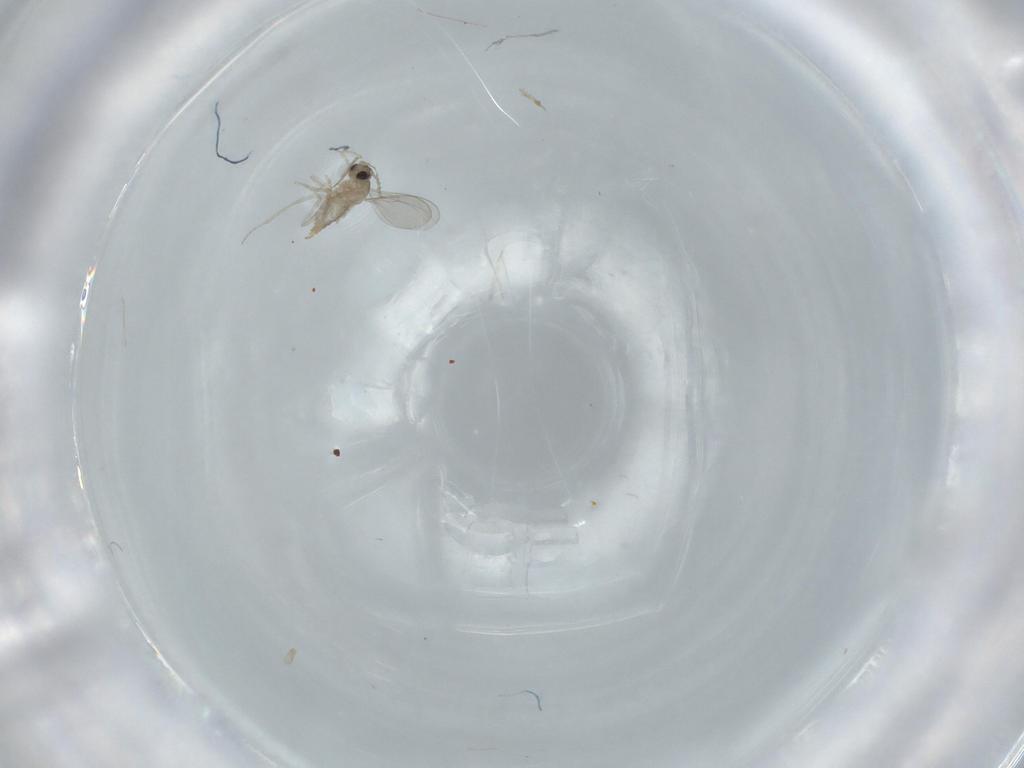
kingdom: Animalia
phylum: Arthropoda
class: Insecta
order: Diptera
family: Cecidomyiidae
